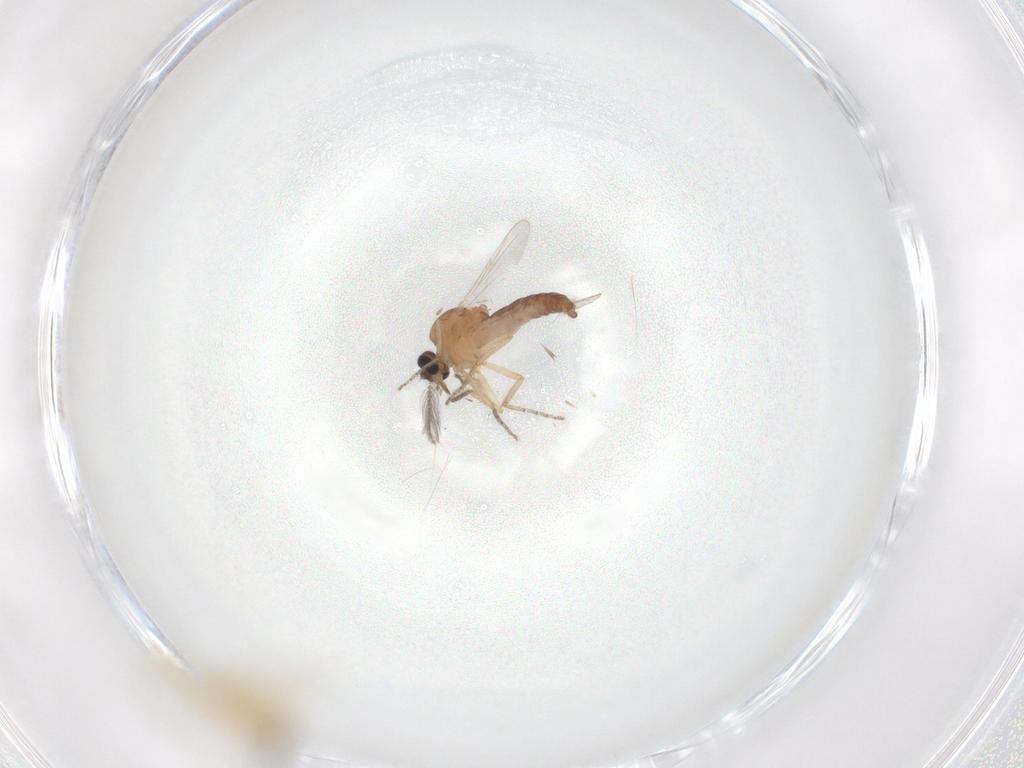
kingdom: Animalia
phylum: Arthropoda
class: Insecta
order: Diptera
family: Ceratopogonidae
